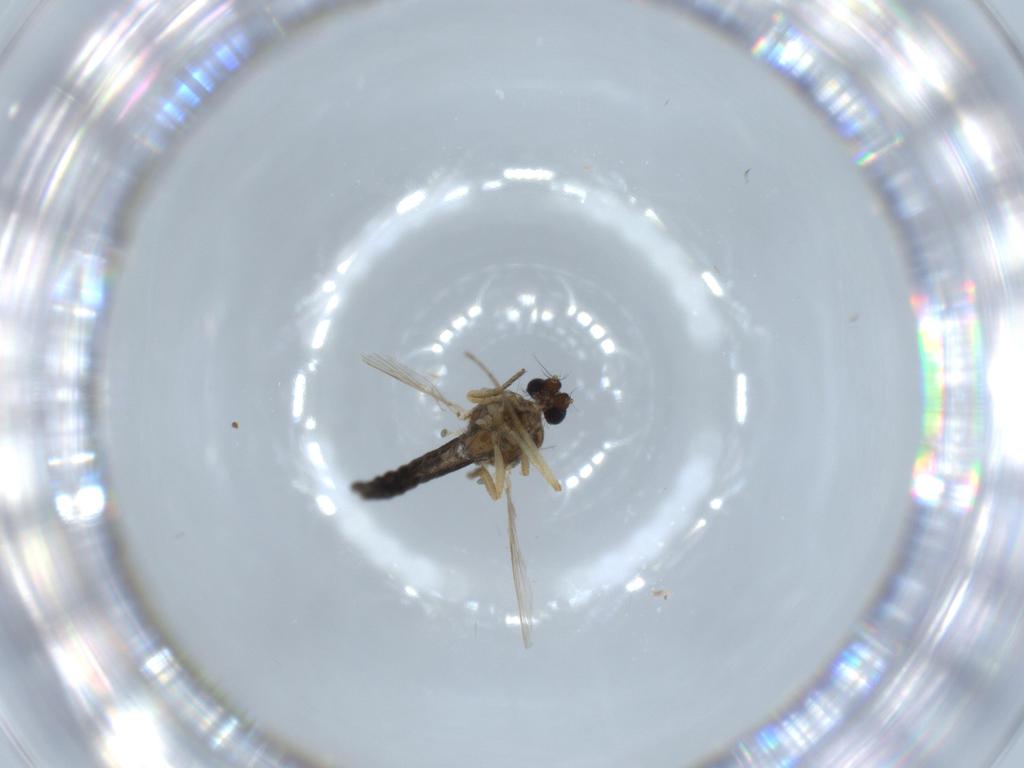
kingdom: Animalia
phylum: Arthropoda
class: Insecta
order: Diptera
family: Ceratopogonidae
